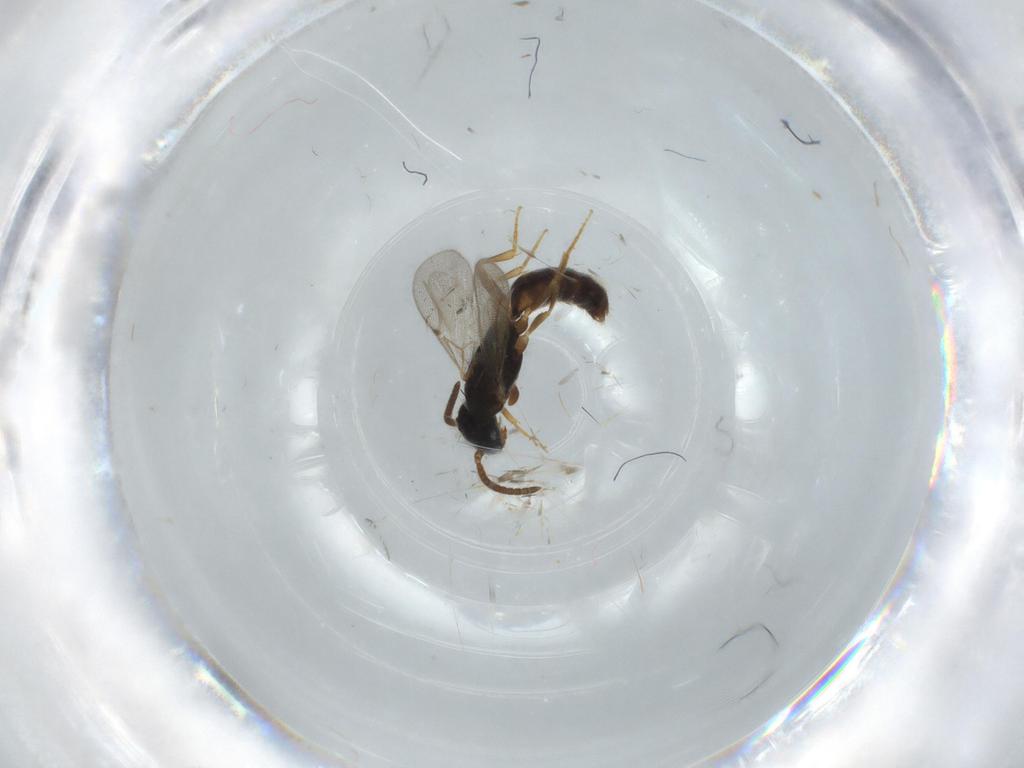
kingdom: Animalia
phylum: Arthropoda
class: Insecta
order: Hymenoptera
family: Bethylidae
